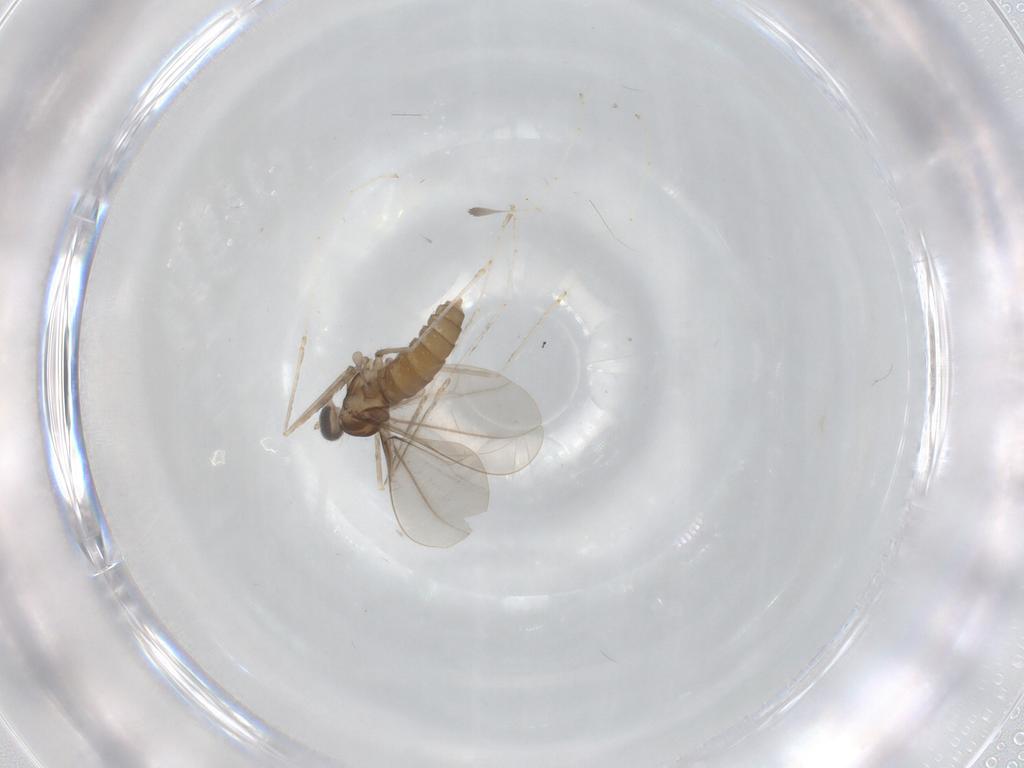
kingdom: Animalia
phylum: Arthropoda
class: Insecta
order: Diptera
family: Cecidomyiidae
